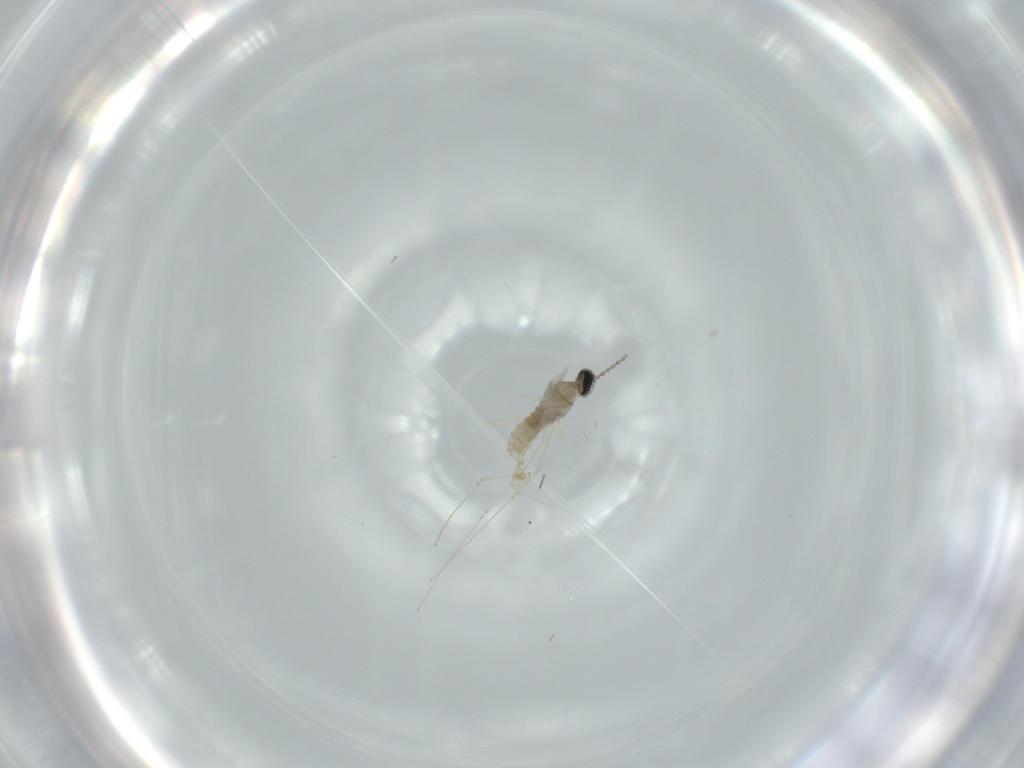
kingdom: Animalia
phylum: Arthropoda
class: Insecta
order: Diptera
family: Cecidomyiidae
